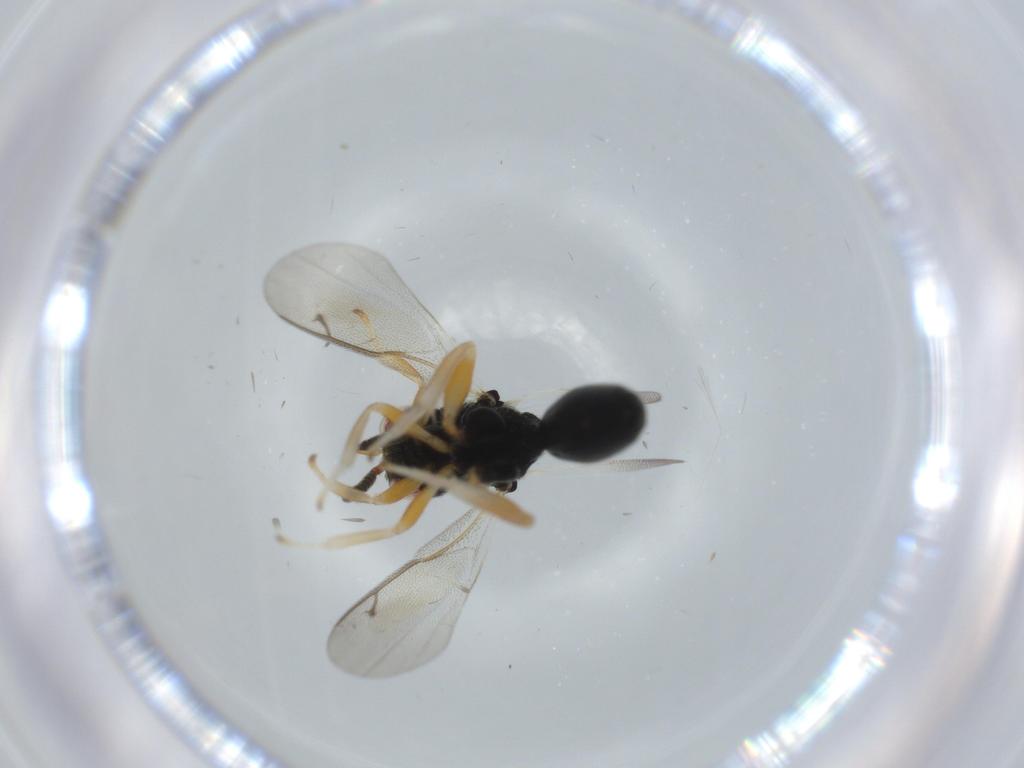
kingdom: Animalia
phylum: Arthropoda
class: Insecta
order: Hymenoptera
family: Eurytomidae
